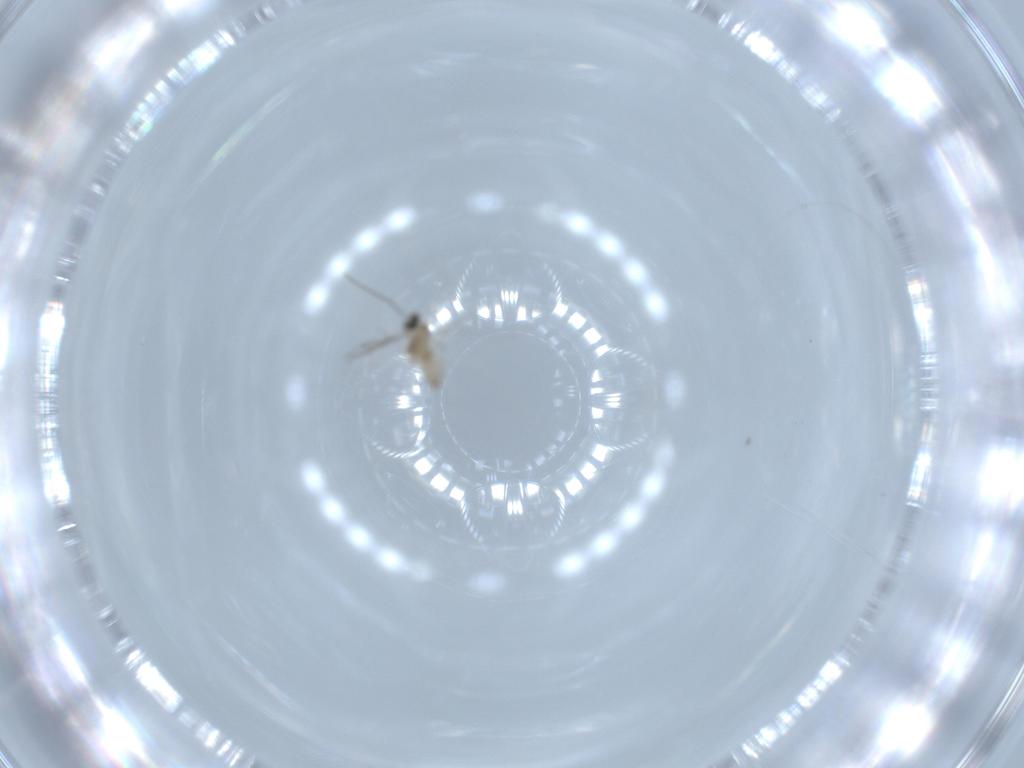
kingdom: Animalia
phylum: Arthropoda
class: Insecta
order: Diptera
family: Cecidomyiidae
